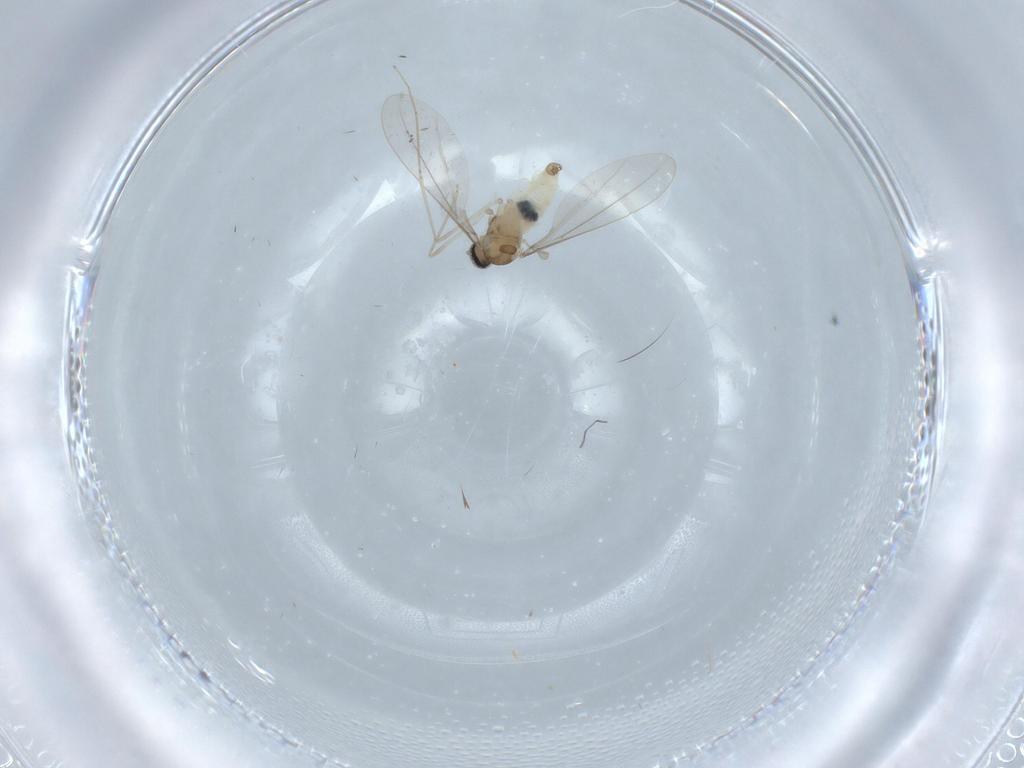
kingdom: Animalia
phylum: Arthropoda
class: Insecta
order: Diptera
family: Cecidomyiidae
